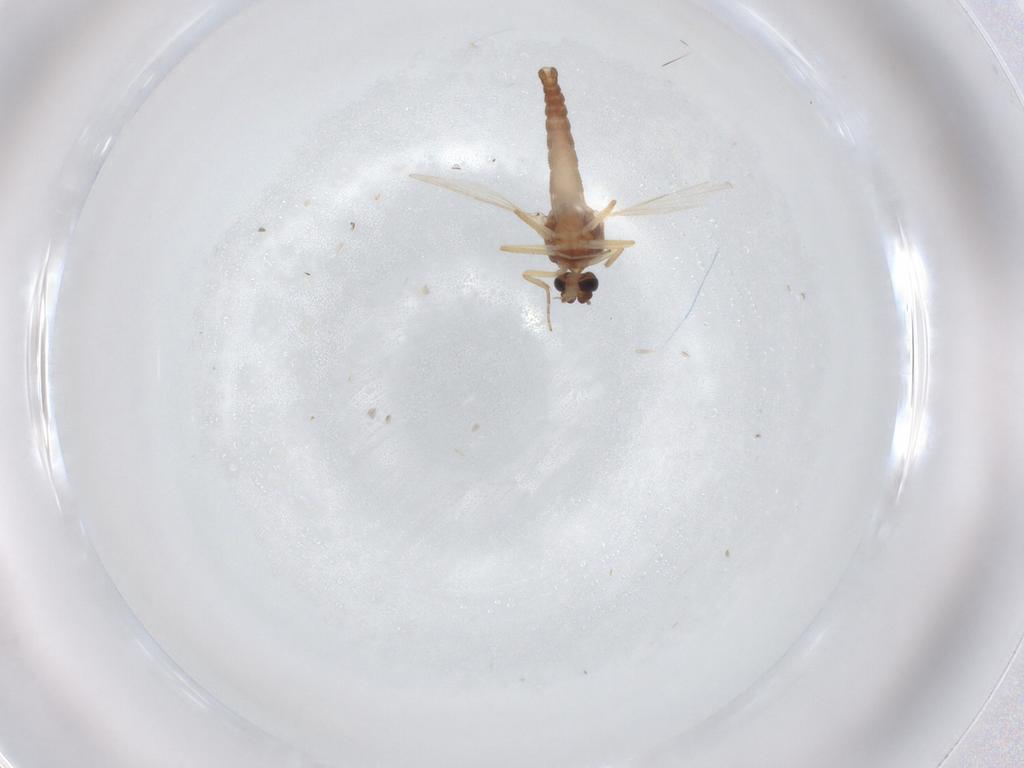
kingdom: Animalia
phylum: Arthropoda
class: Insecta
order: Diptera
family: Ceratopogonidae
